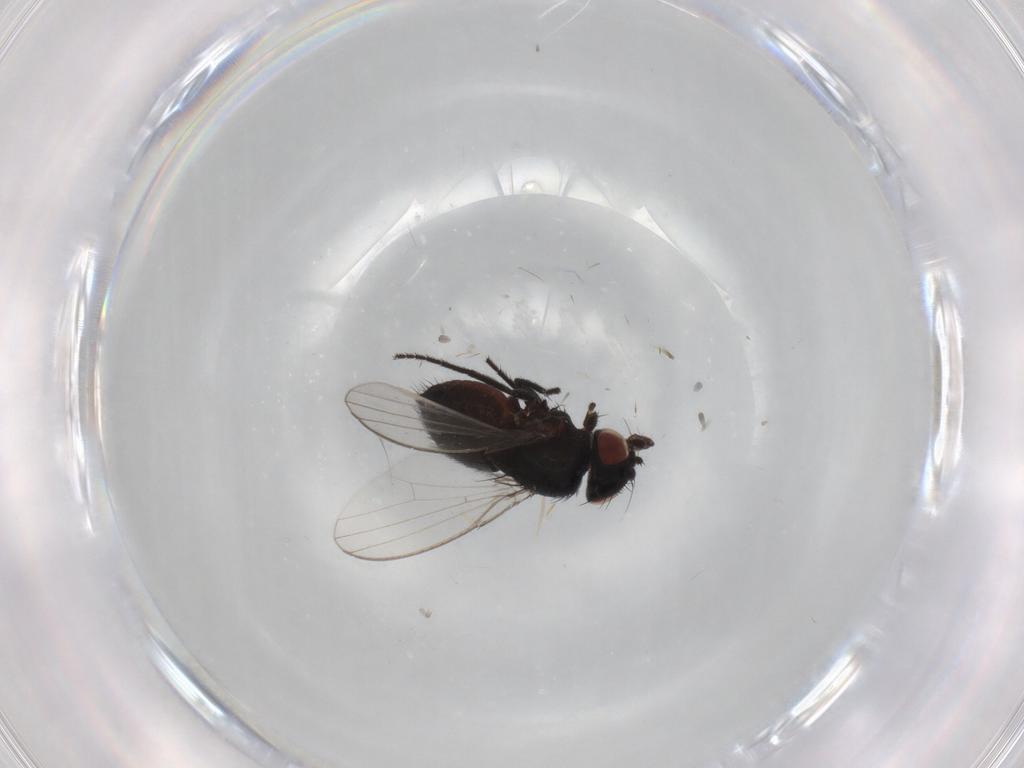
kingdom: Animalia
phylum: Arthropoda
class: Insecta
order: Diptera
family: Milichiidae
